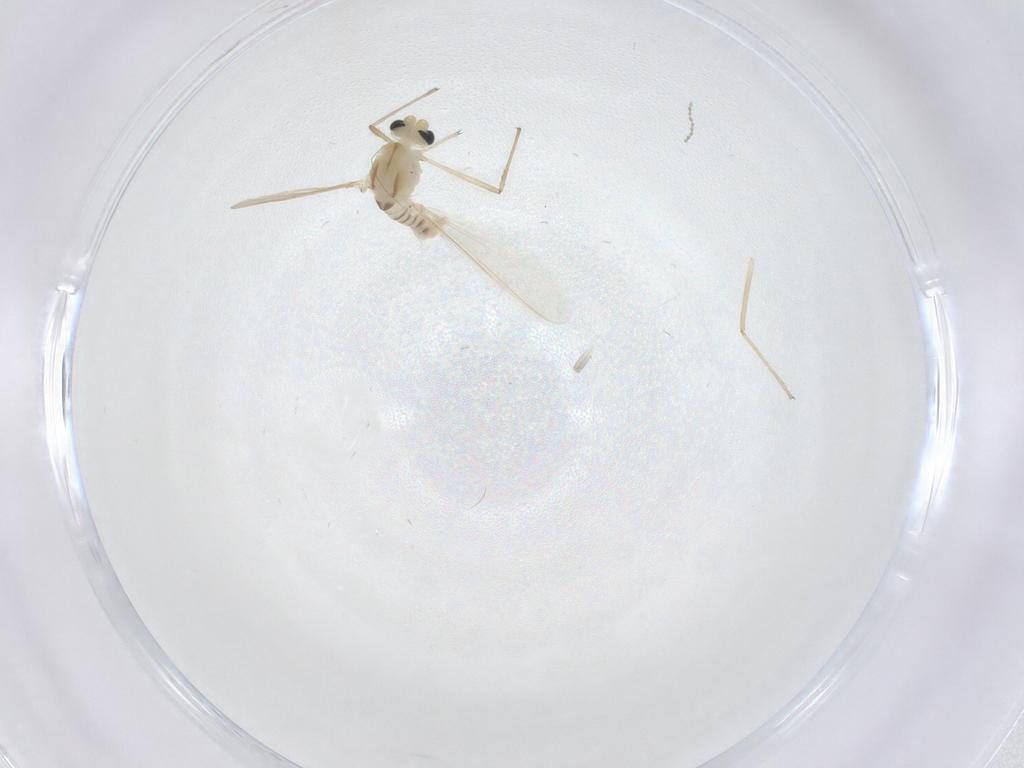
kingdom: Animalia
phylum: Arthropoda
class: Insecta
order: Diptera
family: Chironomidae
